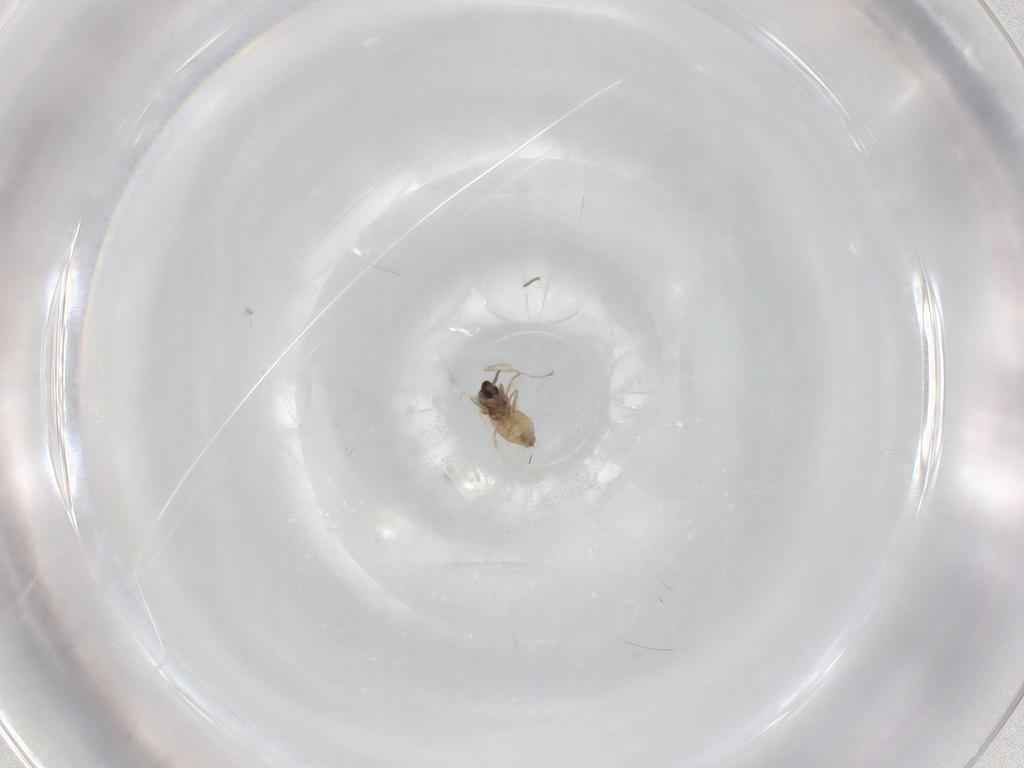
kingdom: Animalia
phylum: Arthropoda
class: Insecta
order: Diptera
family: Cecidomyiidae
